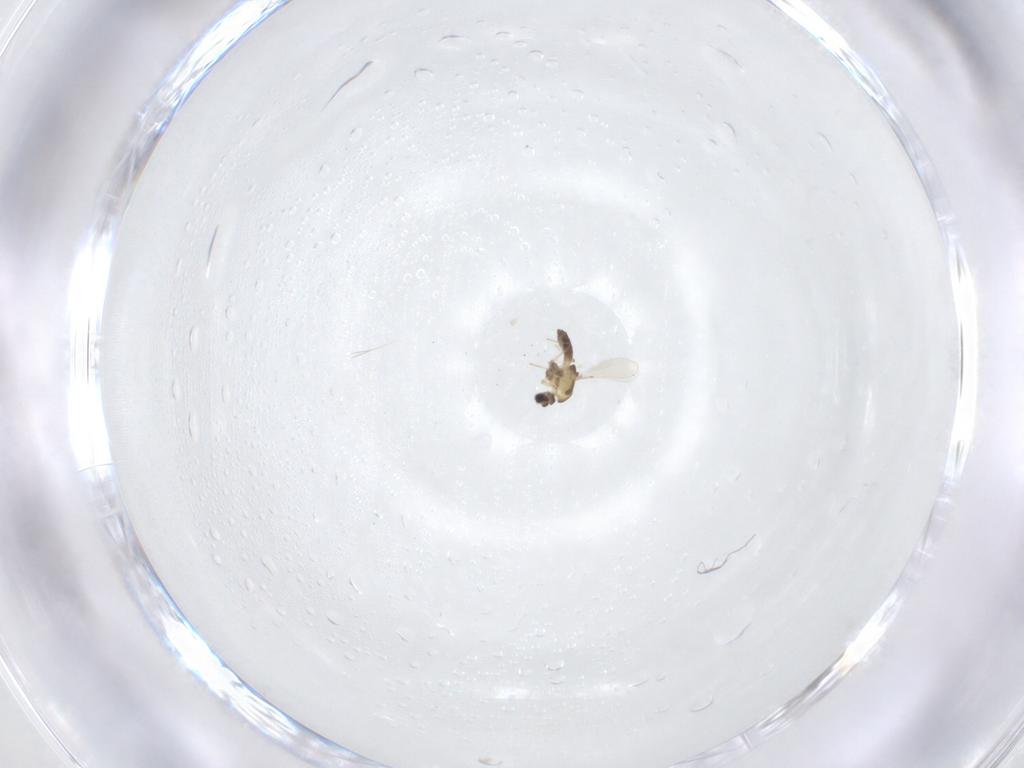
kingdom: Animalia
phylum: Arthropoda
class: Insecta
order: Diptera
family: Chironomidae
